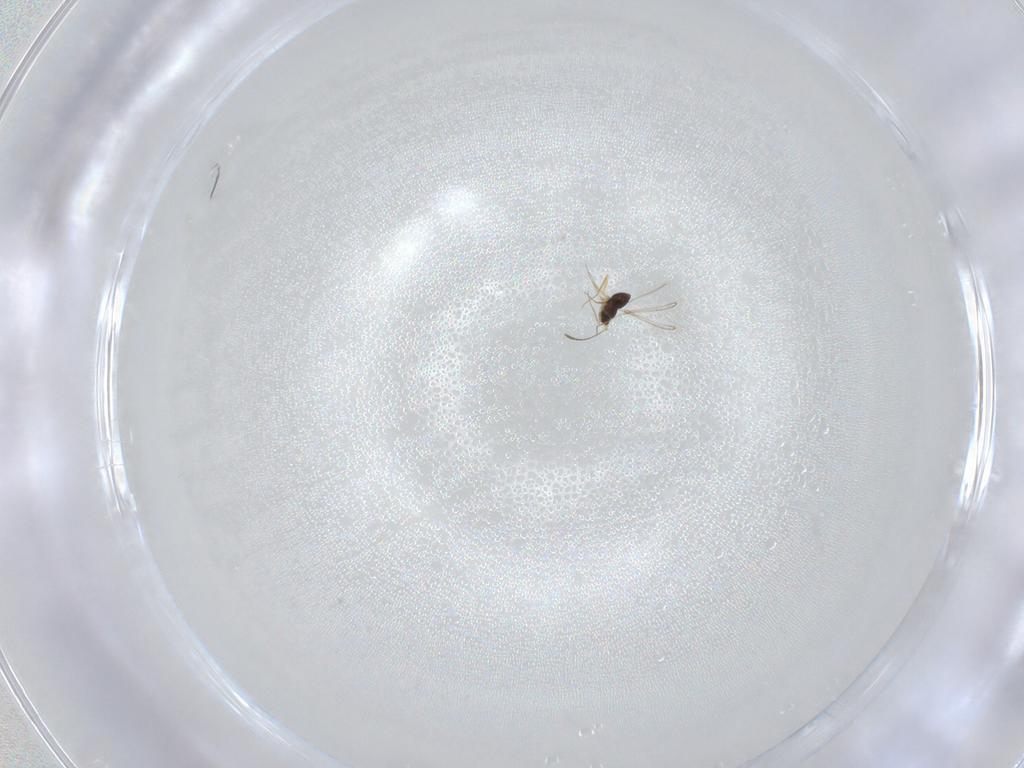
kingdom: Animalia
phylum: Arthropoda
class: Insecta
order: Hymenoptera
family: Mymaridae
